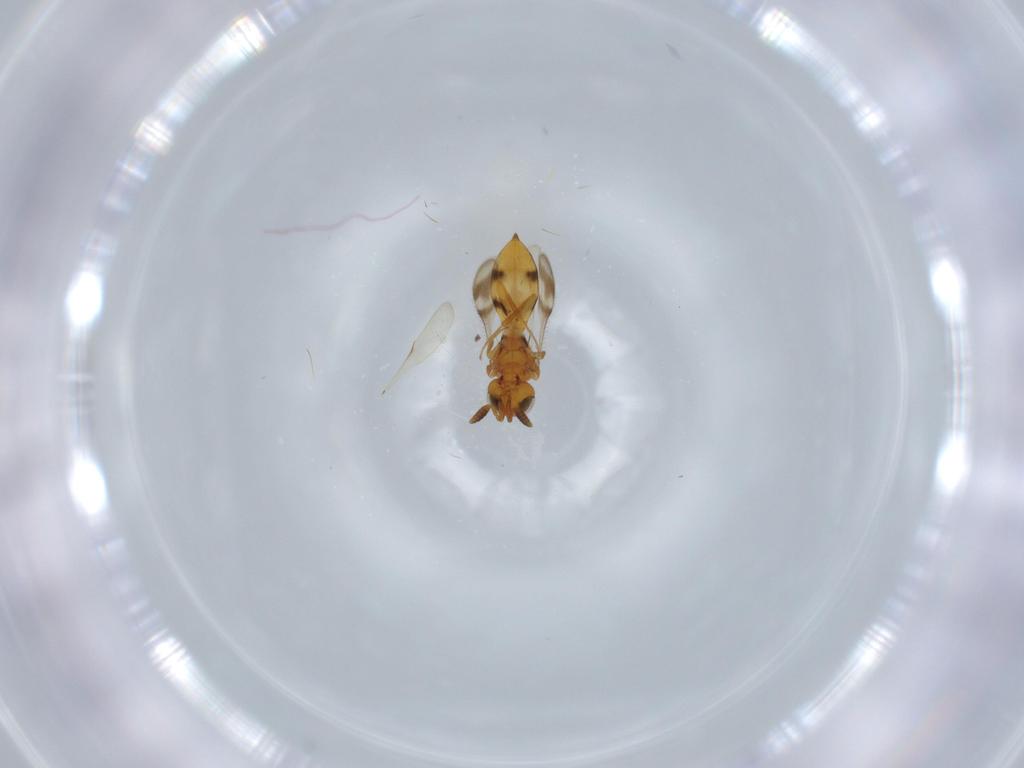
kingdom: Animalia
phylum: Arthropoda
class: Insecta
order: Hymenoptera
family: Scelionidae
